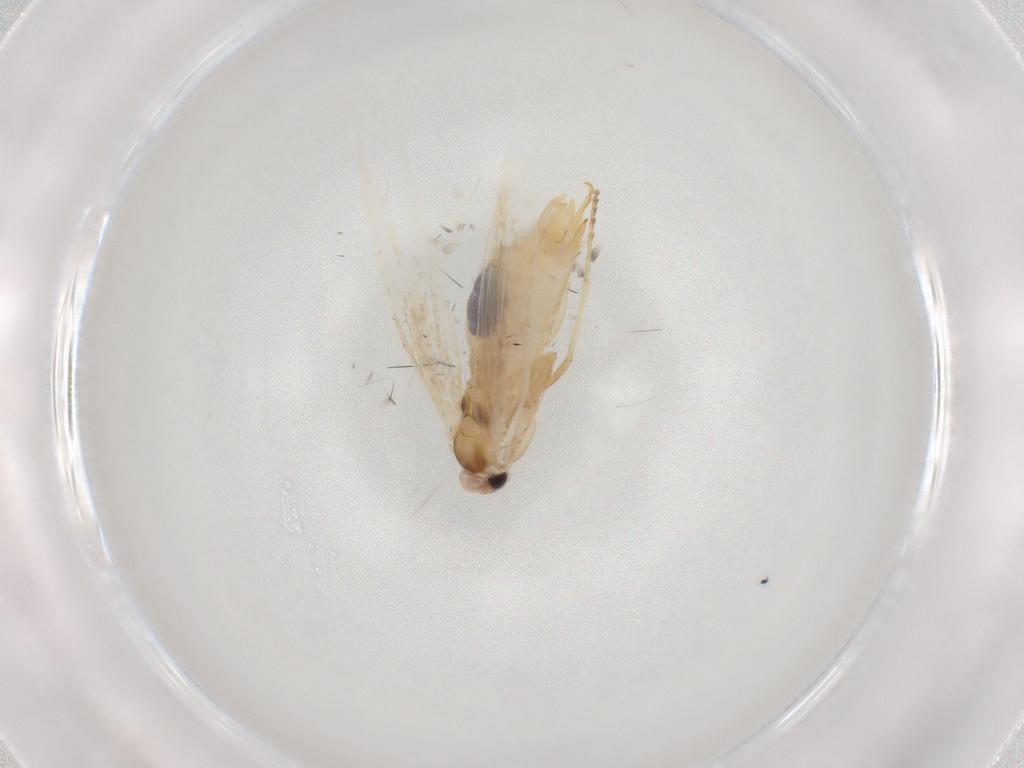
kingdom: Animalia
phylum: Arthropoda
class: Insecta
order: Lepidoptera
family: Bucculatricidae
